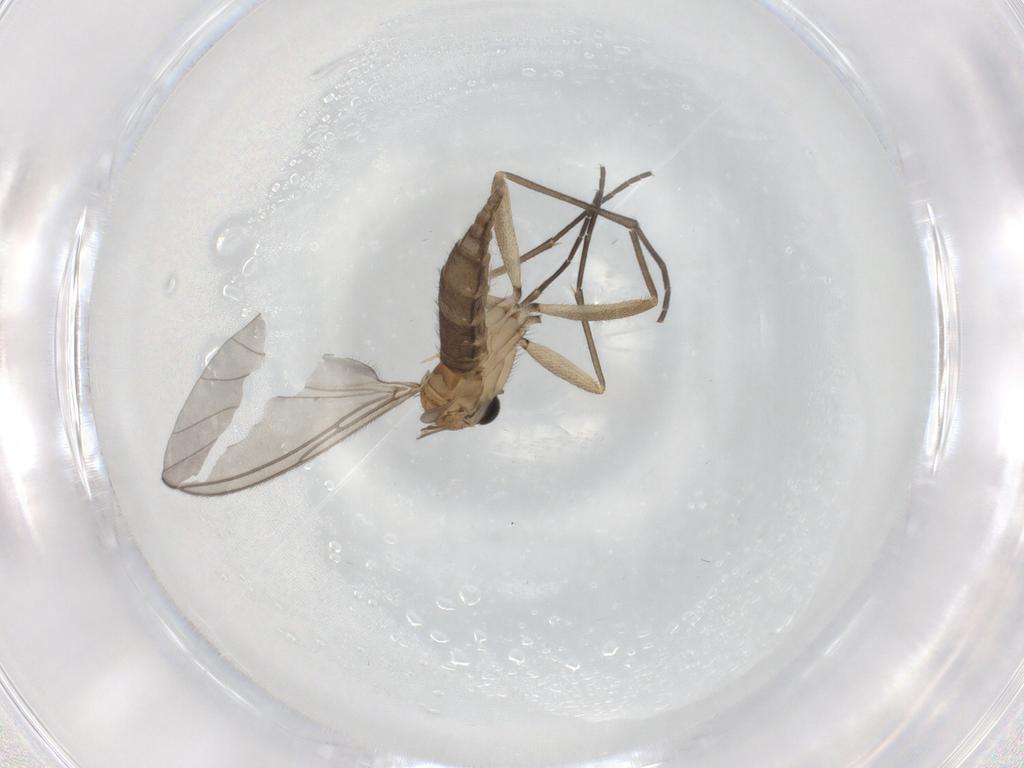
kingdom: Animalia
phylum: Arthropoda
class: Insecta
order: Diptera
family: Sciaridae
